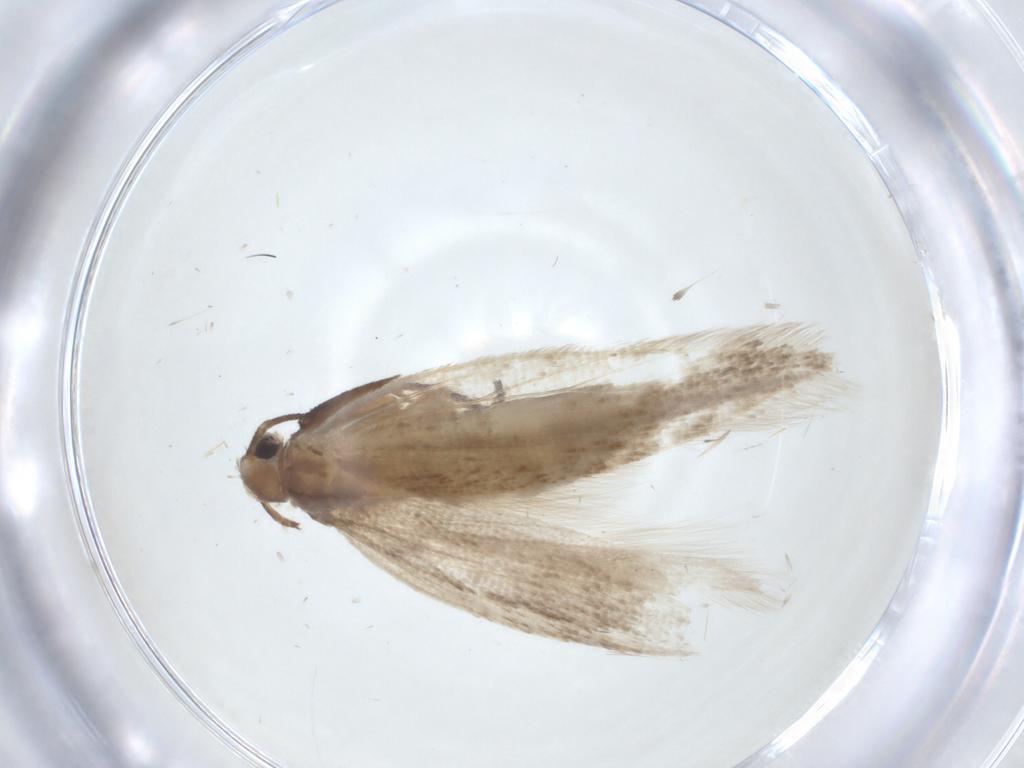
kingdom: Animalia
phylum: Arthropoda
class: Insecta
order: Lepidoptera
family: Gelechiidae
